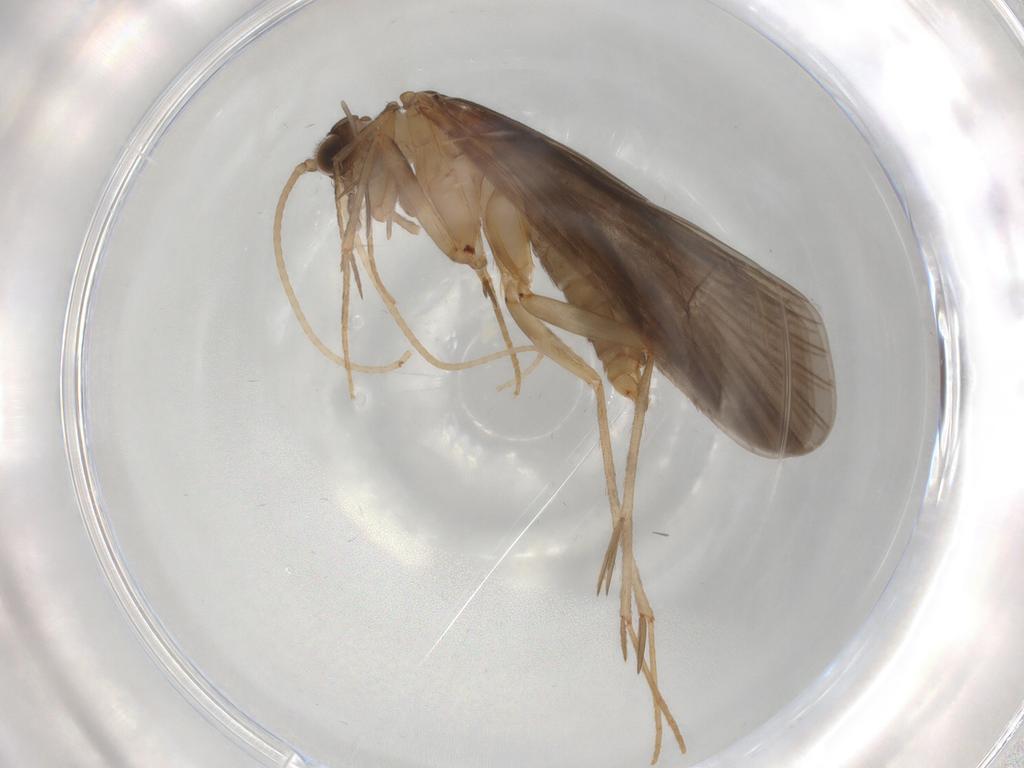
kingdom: Animalia
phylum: Arthropoda
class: Insecta
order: Trichoptera
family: Philopotamidae
